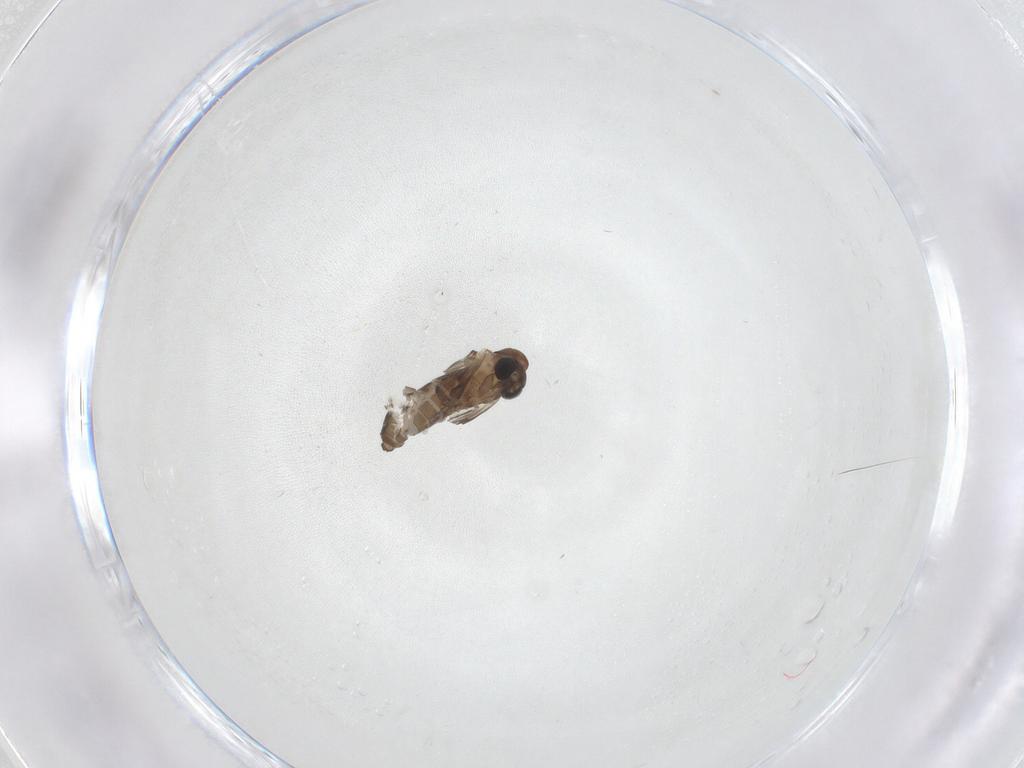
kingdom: Animalia
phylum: Arthropoda
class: Insecta
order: Diptera
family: Psychodidae
